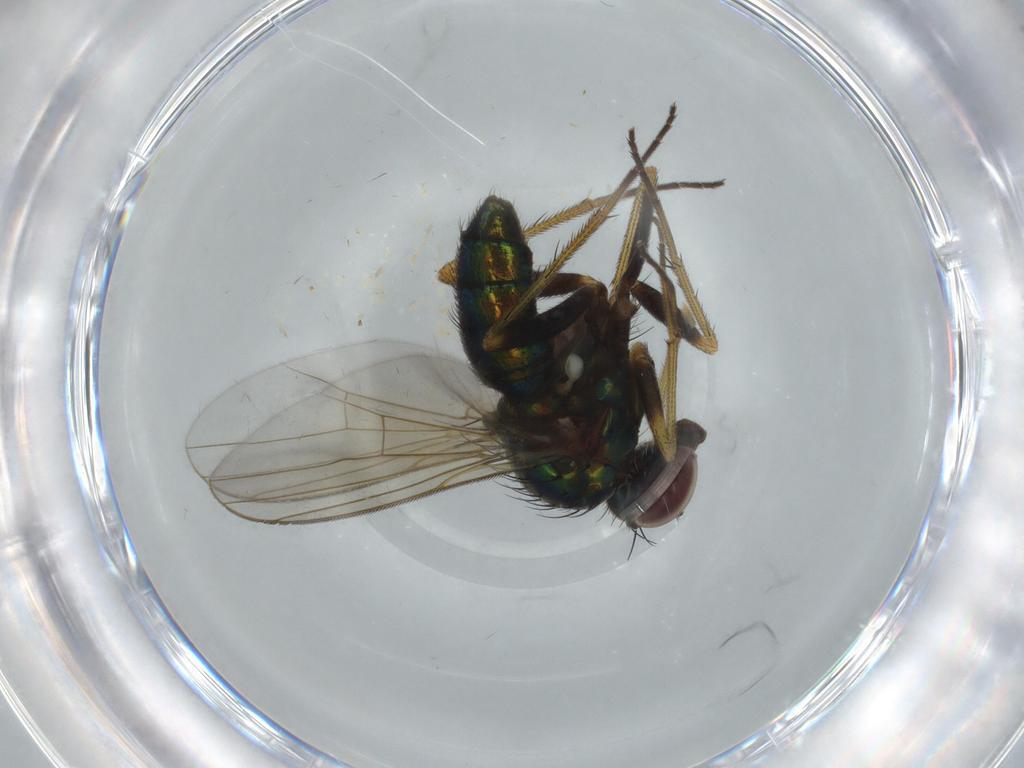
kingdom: Animalia
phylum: Arthropoda
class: Insecta
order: Diptera
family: Dolichopodidae
